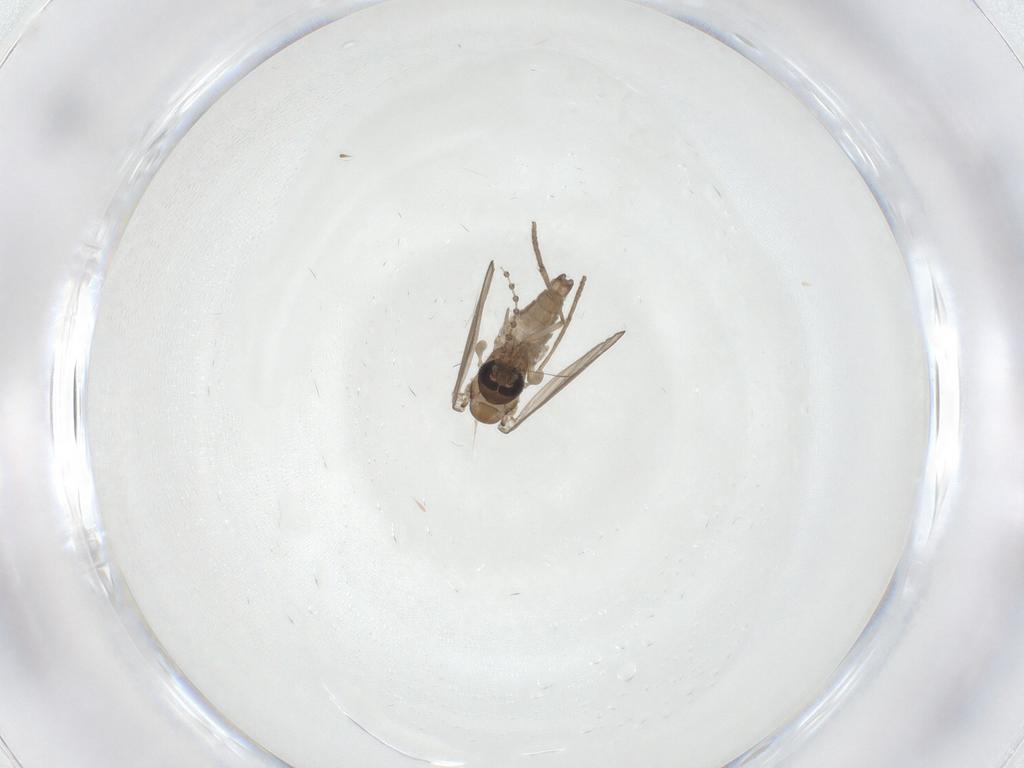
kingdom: Animalia
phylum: Arthropoda
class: Insecta
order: Diptera
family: Psychodidae
